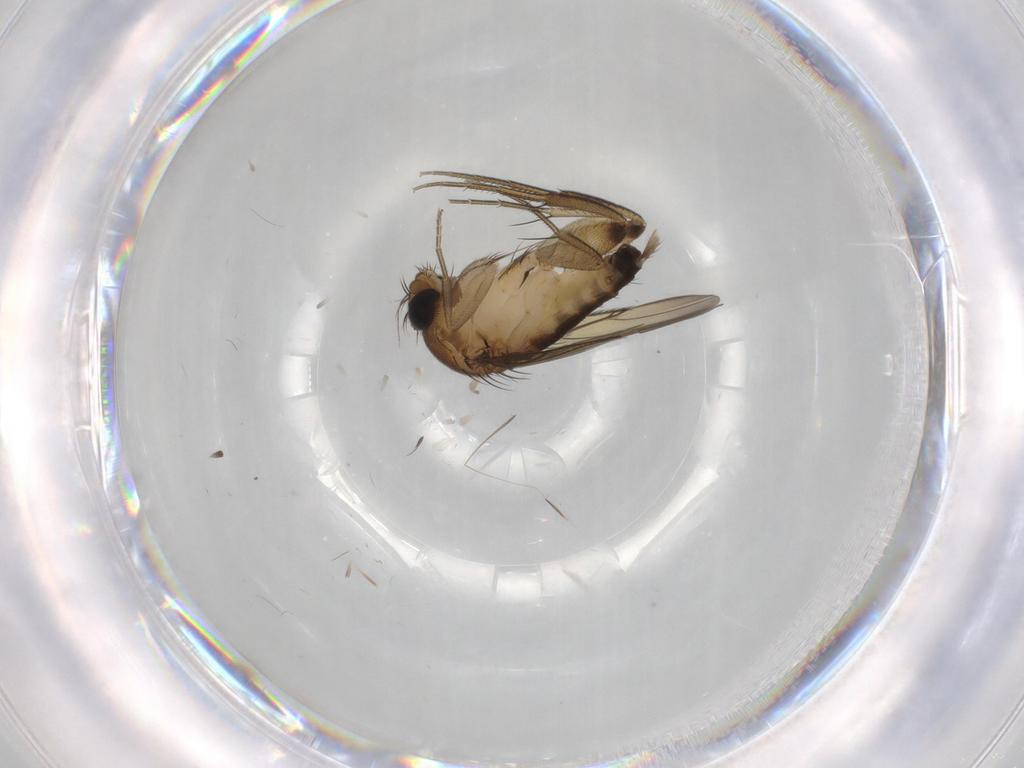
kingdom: Animalia
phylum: Arthropoda
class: Insecta
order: Diptera
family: Phoridae
